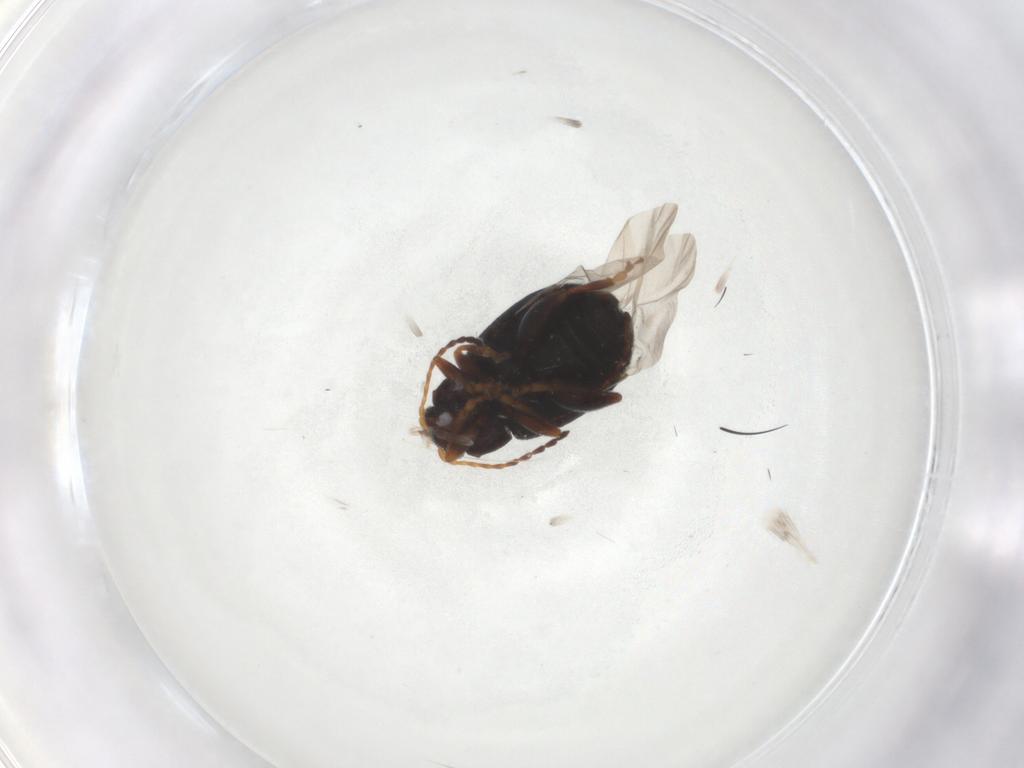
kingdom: Animalia
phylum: Arthropoda
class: Insecta
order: Coleoptera
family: Chrysomelidae
